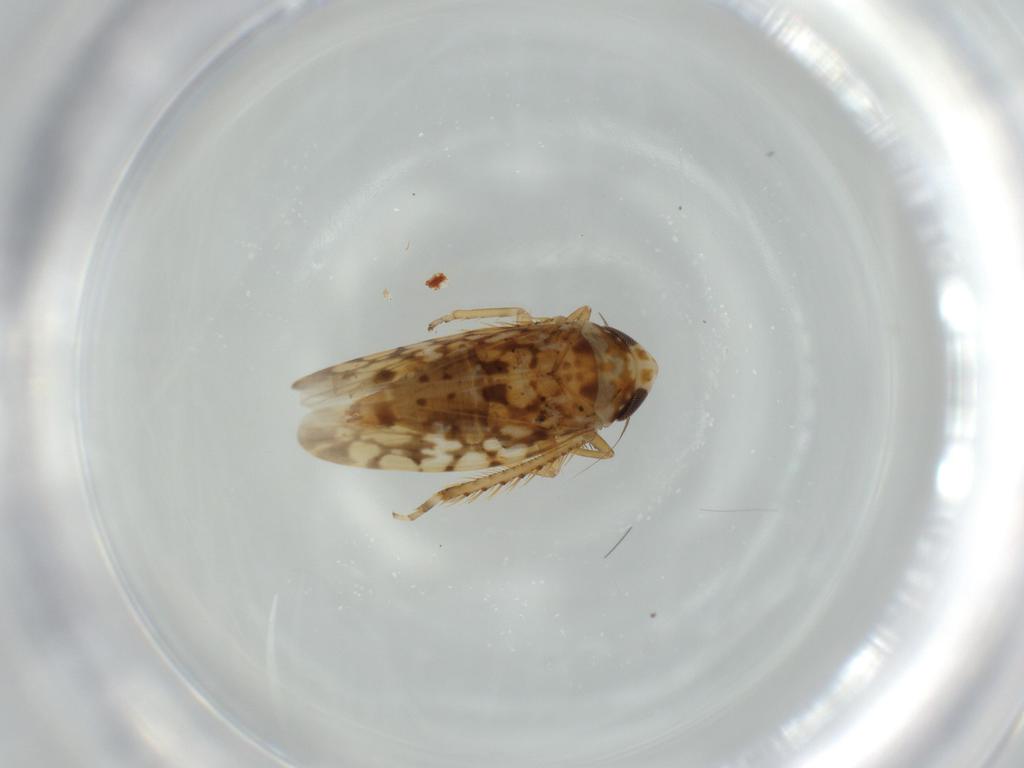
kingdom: Animalia
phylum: Arthropoda
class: Insecta
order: Hemiptera
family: Cicadellidae
